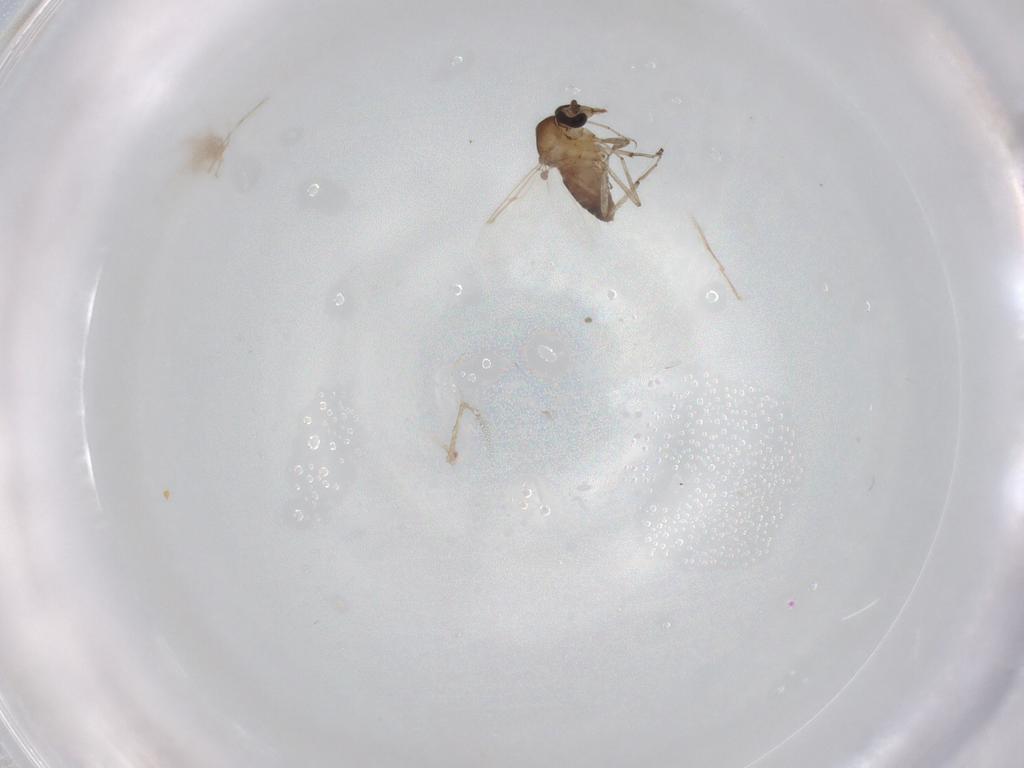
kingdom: Animalia
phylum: Arthropoda
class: Insecta
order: Diptera
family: Ceratopogonidae
